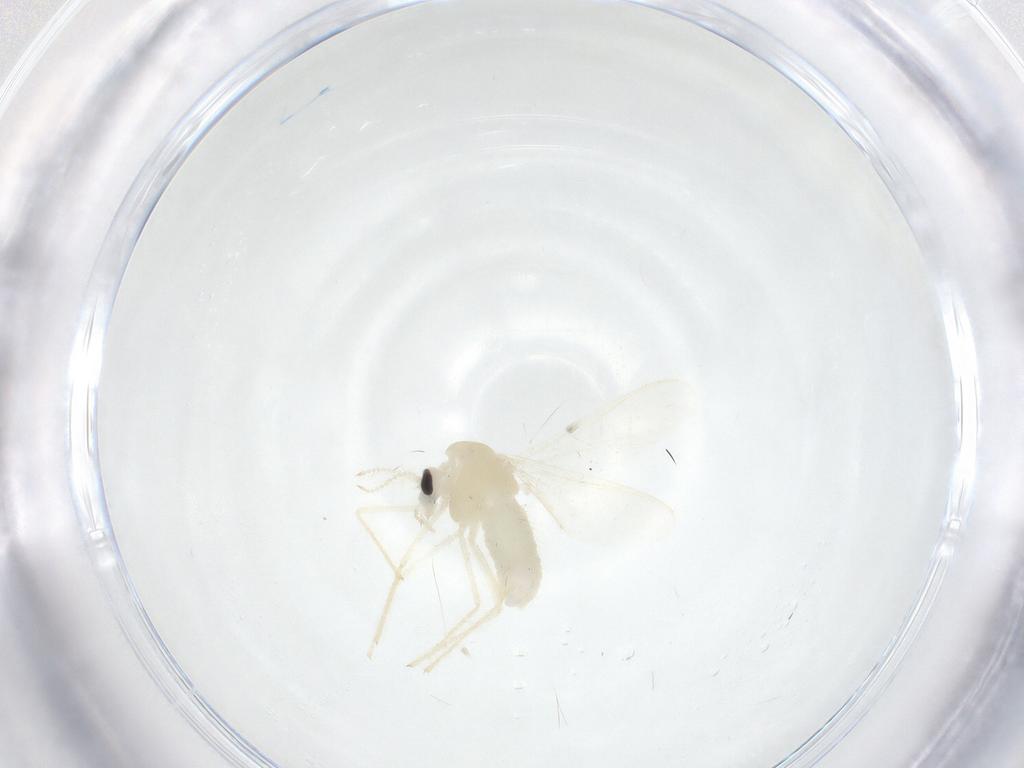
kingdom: Animalia
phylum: Arthropoda
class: Insecta
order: Diptera
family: Chironomidae
